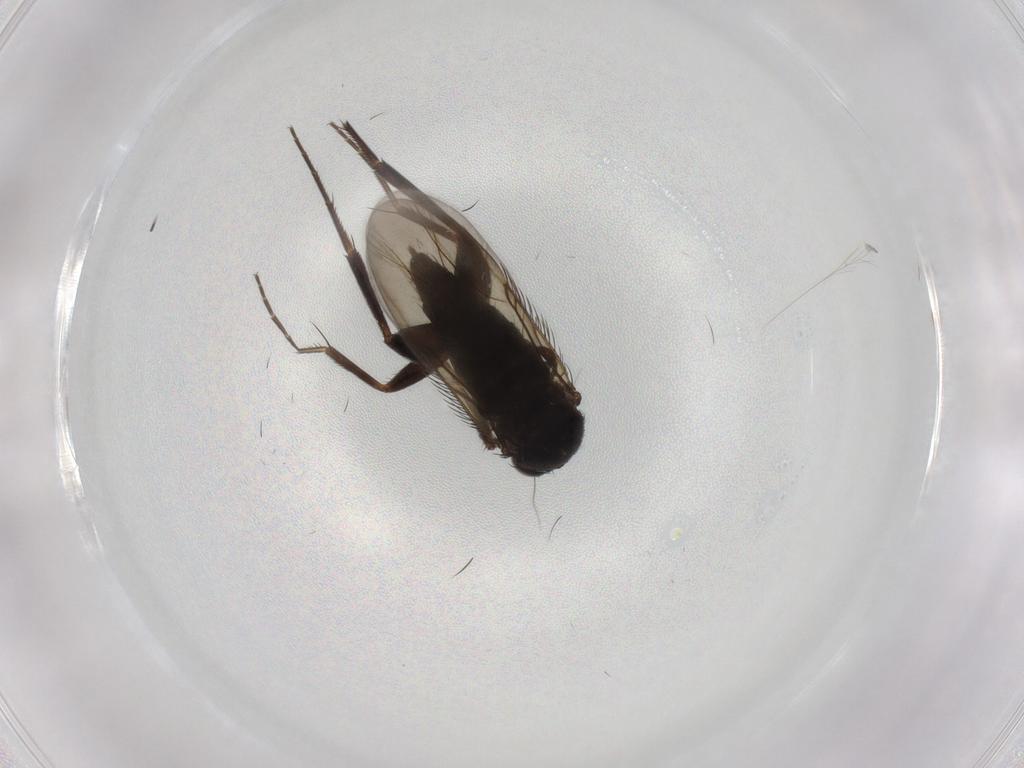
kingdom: Animalia
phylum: Arthropoda
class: Insecta
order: Diptera
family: Phoridae
